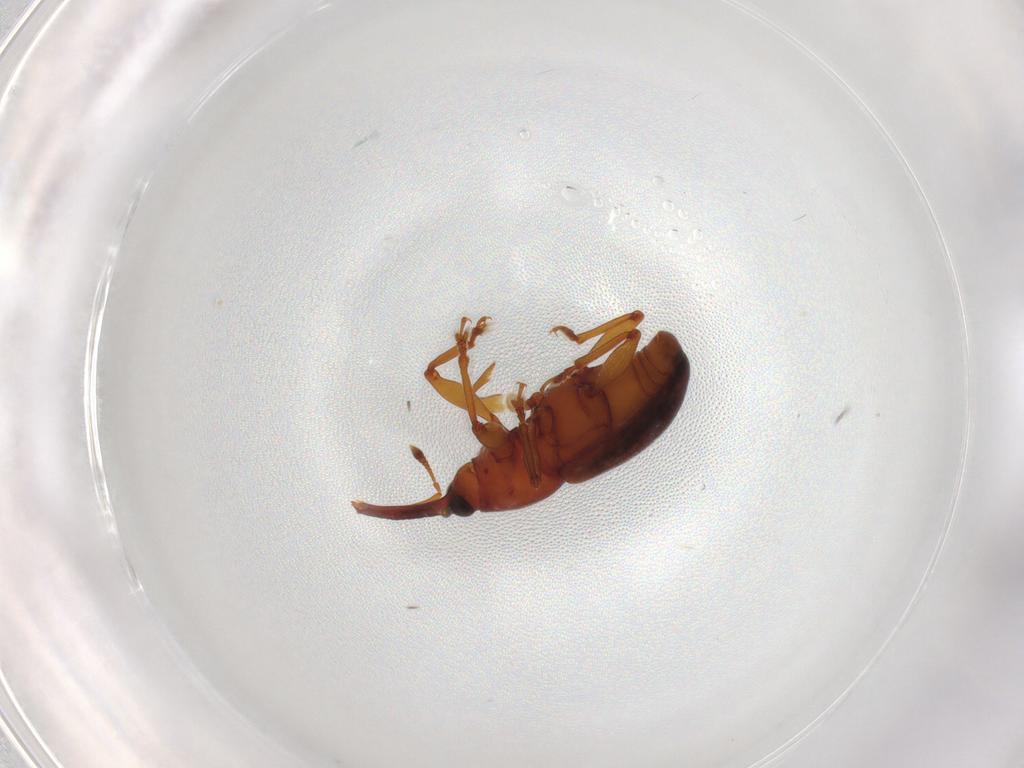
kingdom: Animalia
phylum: Arthropoda
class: Insecta
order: Coleoptera
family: Curculionidae
